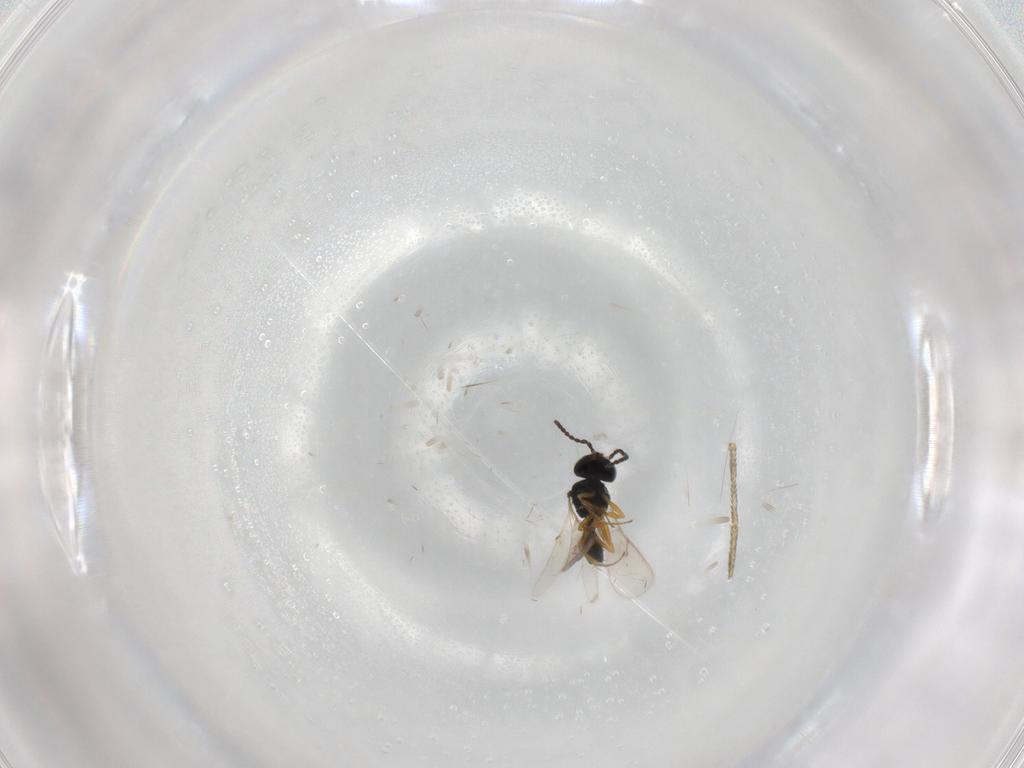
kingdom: Animalia
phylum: Arthropoda
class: Insecta
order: Hymenoptera
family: Scelionidae
